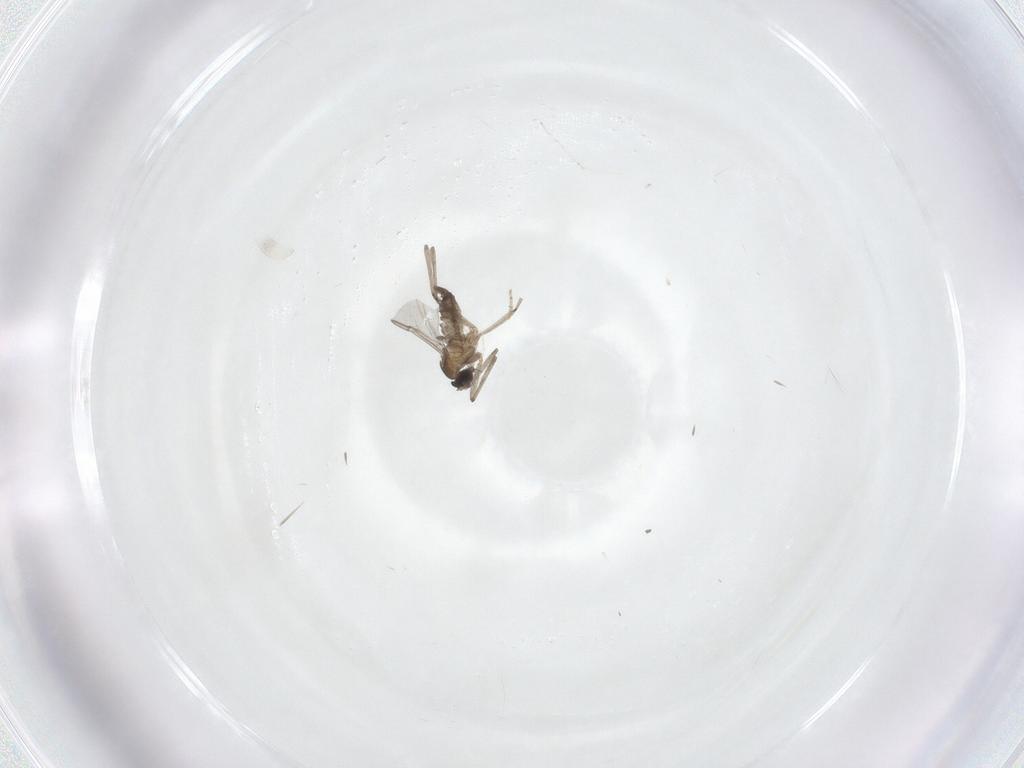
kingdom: Animalia
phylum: Arthropoda
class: Insecta
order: Diptera
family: Cecidomyiidae
